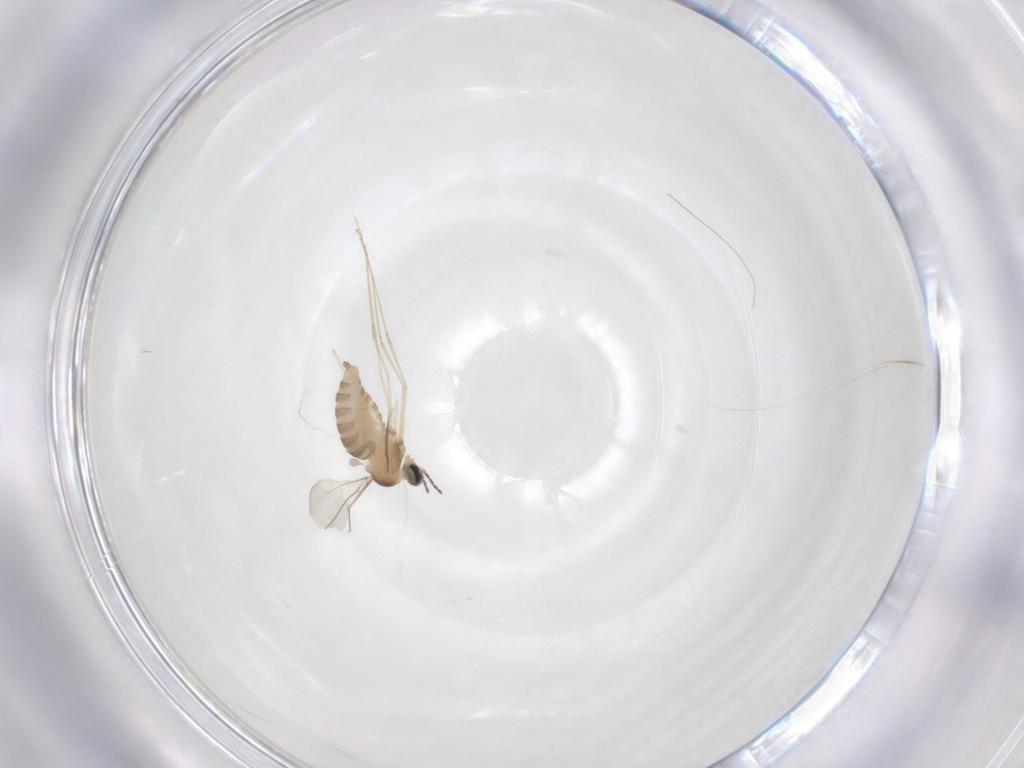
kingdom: Animalia
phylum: Arthropoda
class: Insecta
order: Diptera
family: Cecidomyiidae
